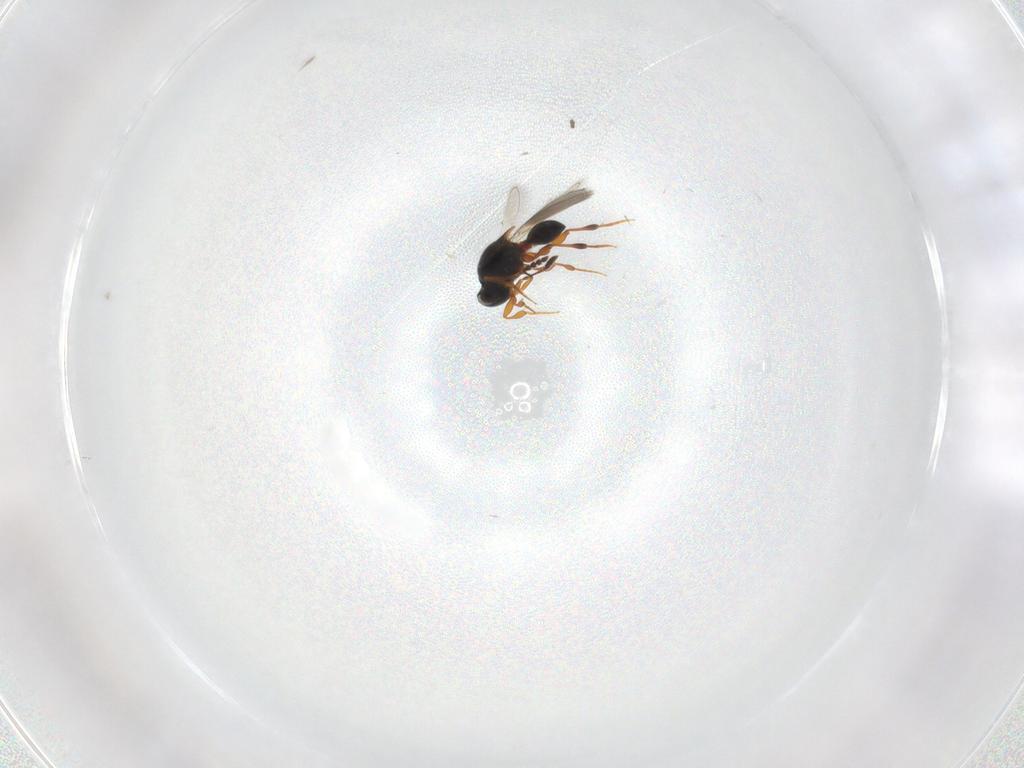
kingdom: Animalia
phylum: Arthropoda
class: Insecta
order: Hymenoptera
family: Platygastridae
